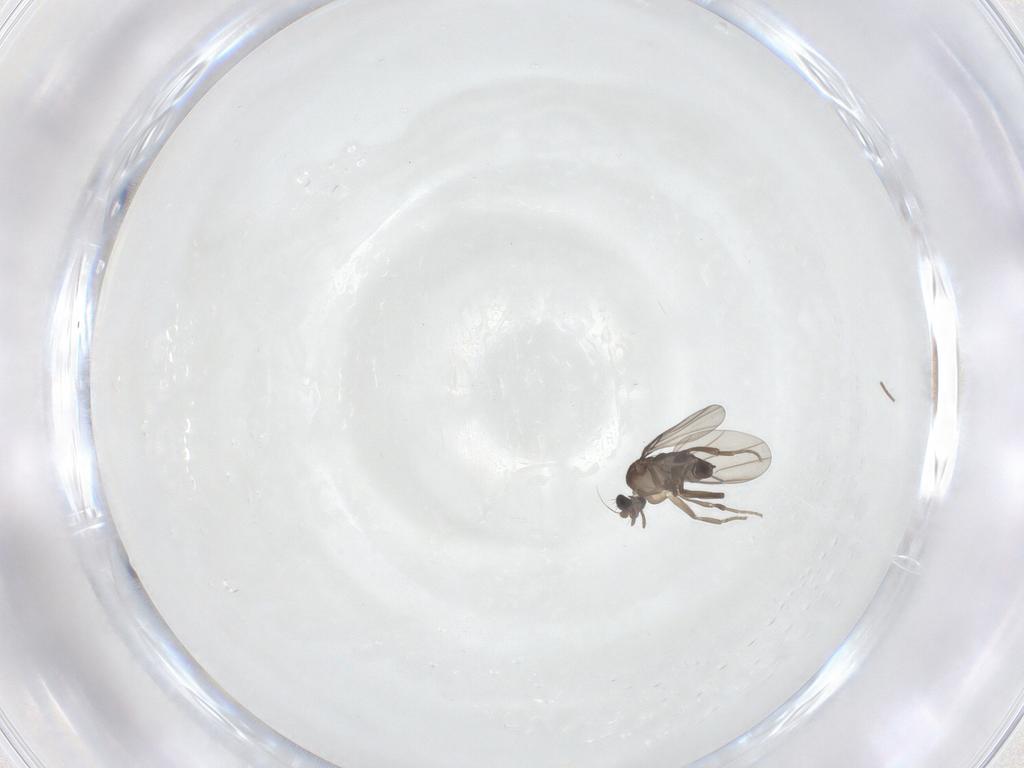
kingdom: Animalia
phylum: Arthropoda
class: Insecta
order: Diptera
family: Sciaridae
